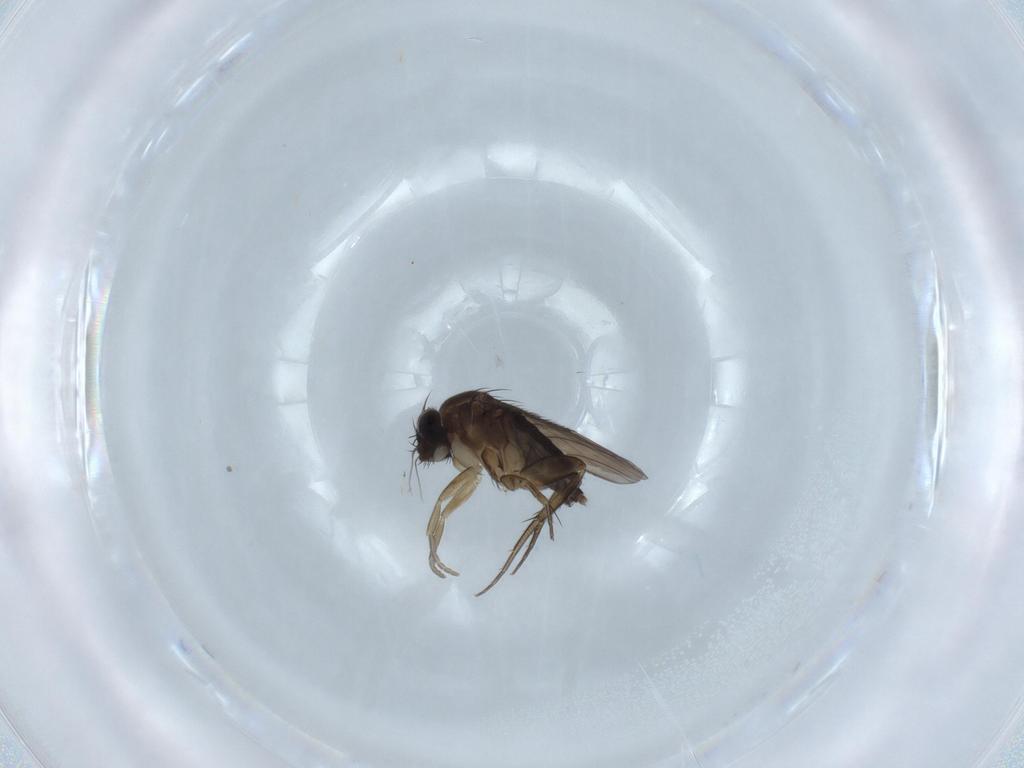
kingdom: Animalia
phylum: Arthropoda
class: Insecta
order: Diptera
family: Phoridae
